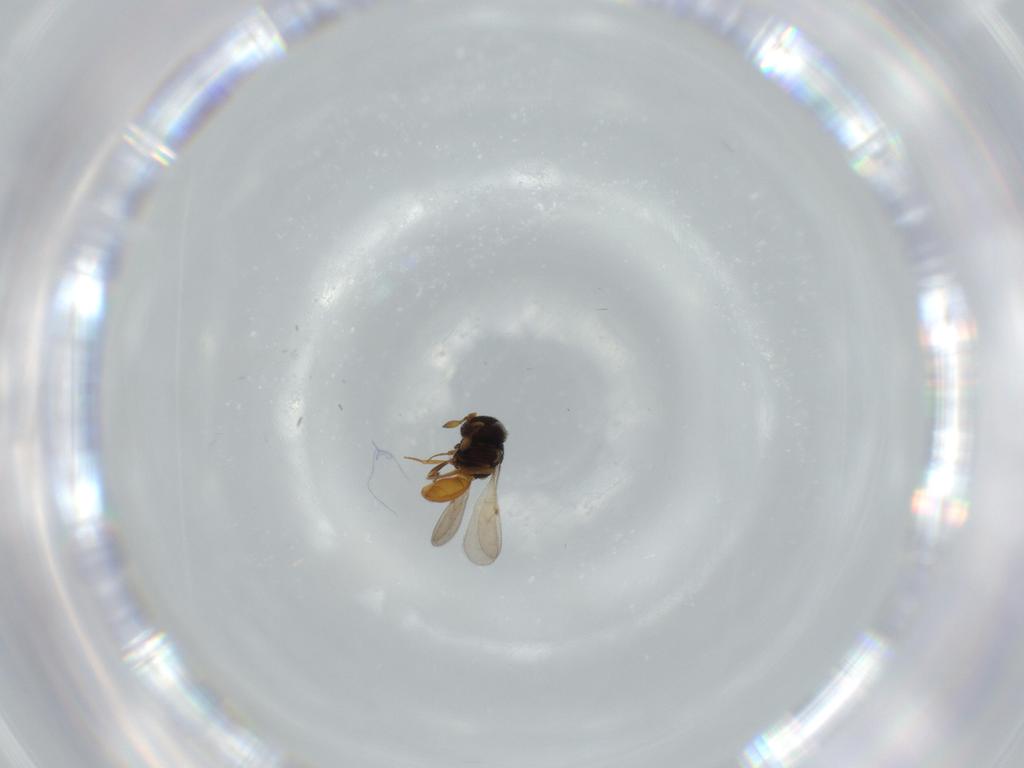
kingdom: Animalia
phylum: Arthropoda
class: Insecta
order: Hymenoptera
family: Scelionidae
